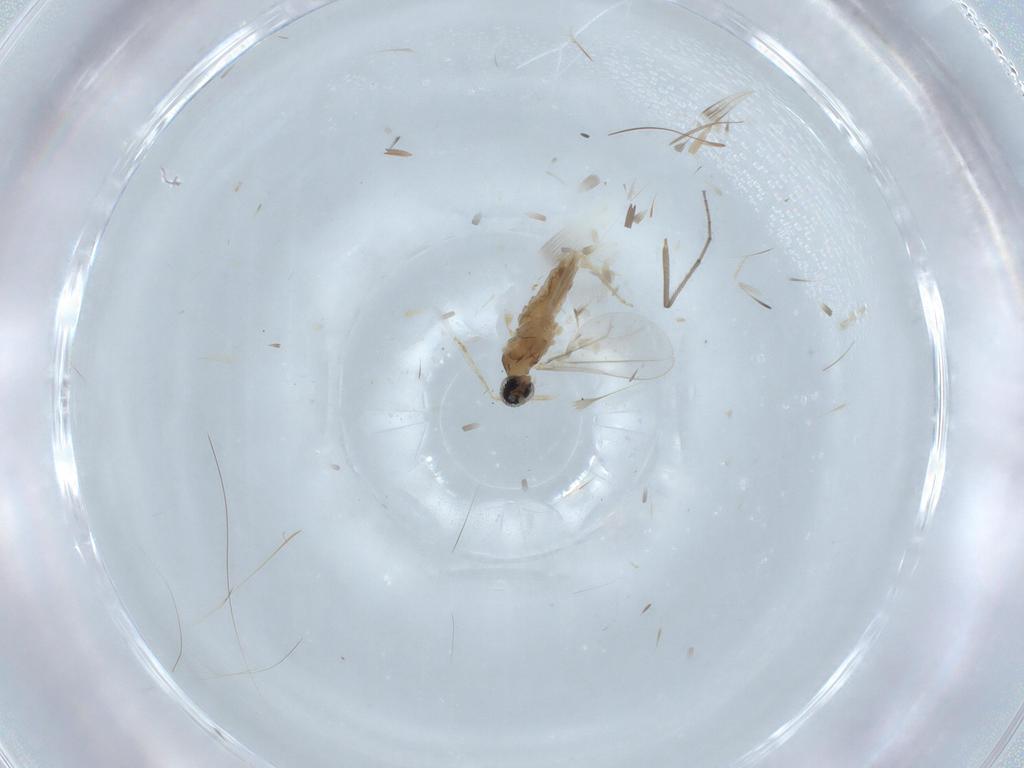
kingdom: Animalia
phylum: Arthropoda
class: Insecta
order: Diptera
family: Cecidomyiidae
